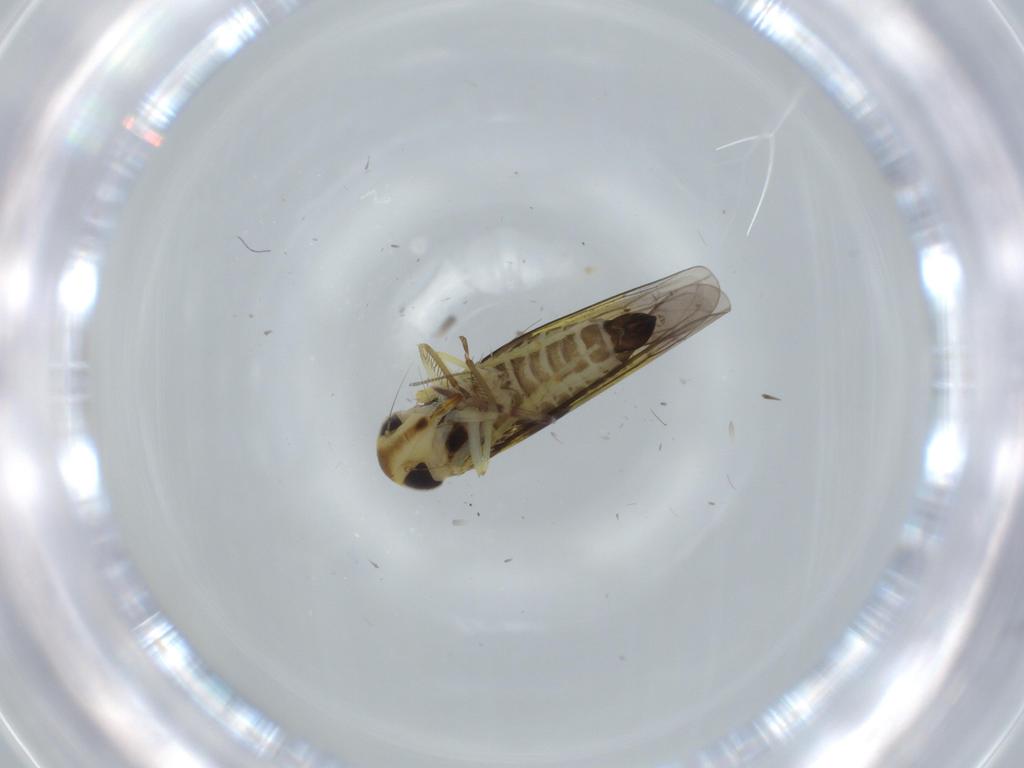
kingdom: Animalia
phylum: Arthropoda
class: Insecta
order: Hemiptera
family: Cicadellidae
